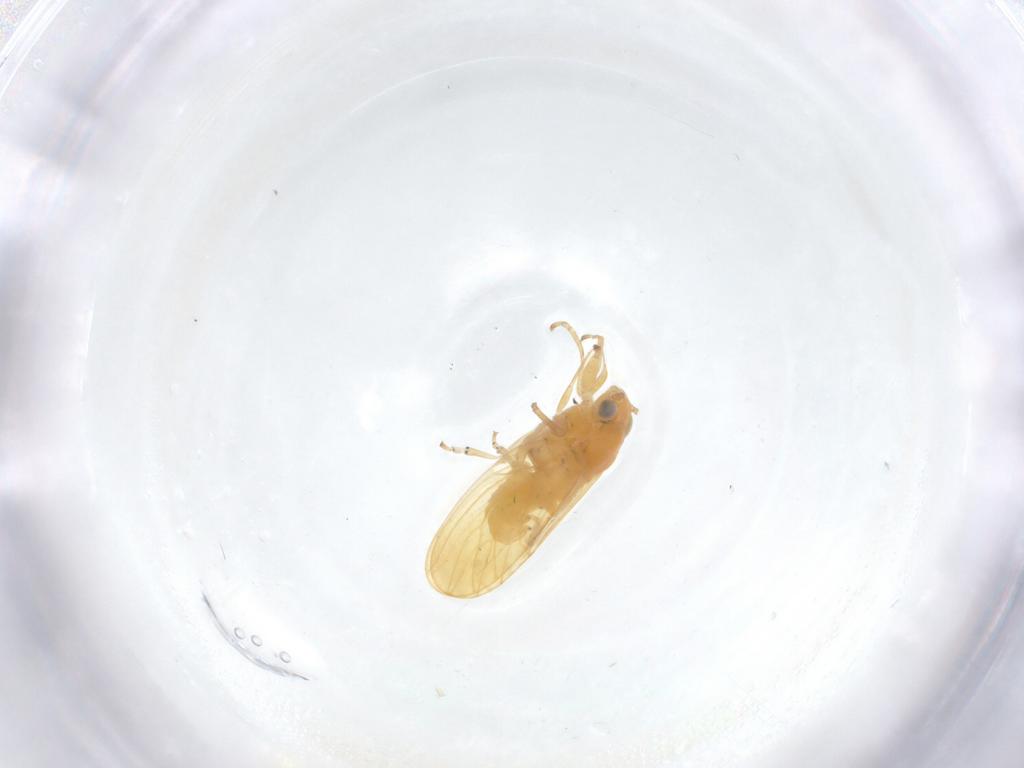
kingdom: Animalia
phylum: Arthropoda
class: Insecta
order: Hemiptera
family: Psyllidae
